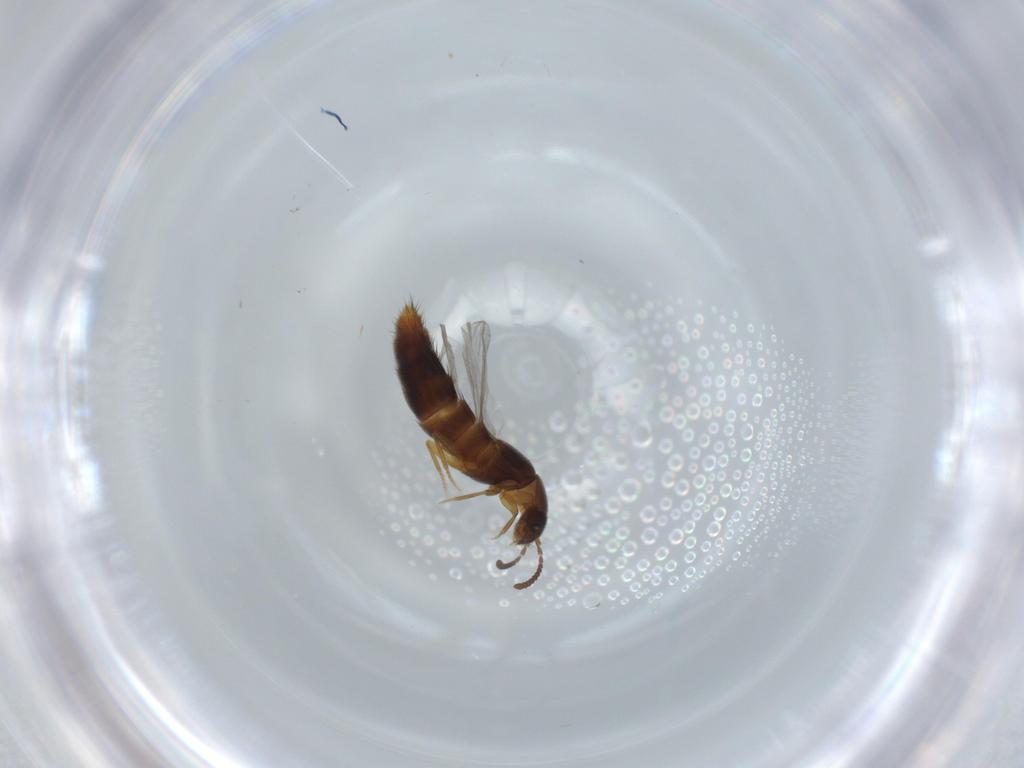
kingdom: Animalia
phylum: Arthropoda
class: Insecta
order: Coleoptera
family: Staphylinidae
